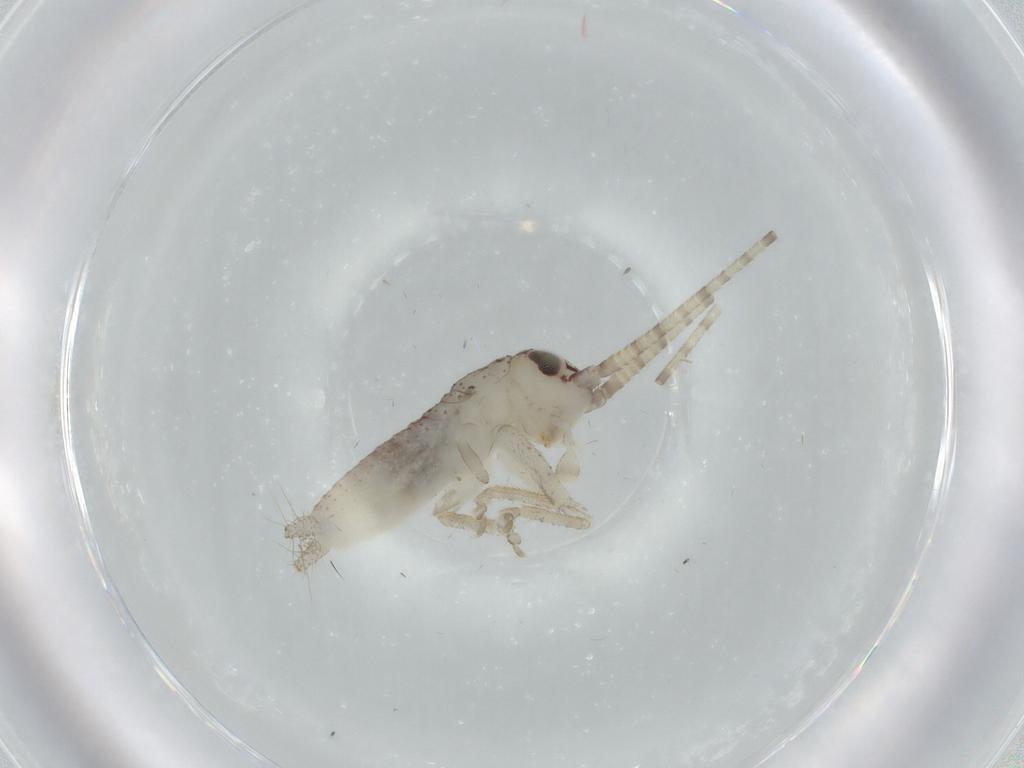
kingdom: Animalia
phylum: Arthropoda
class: Insecta
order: Orthoptera
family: Gryllidae
